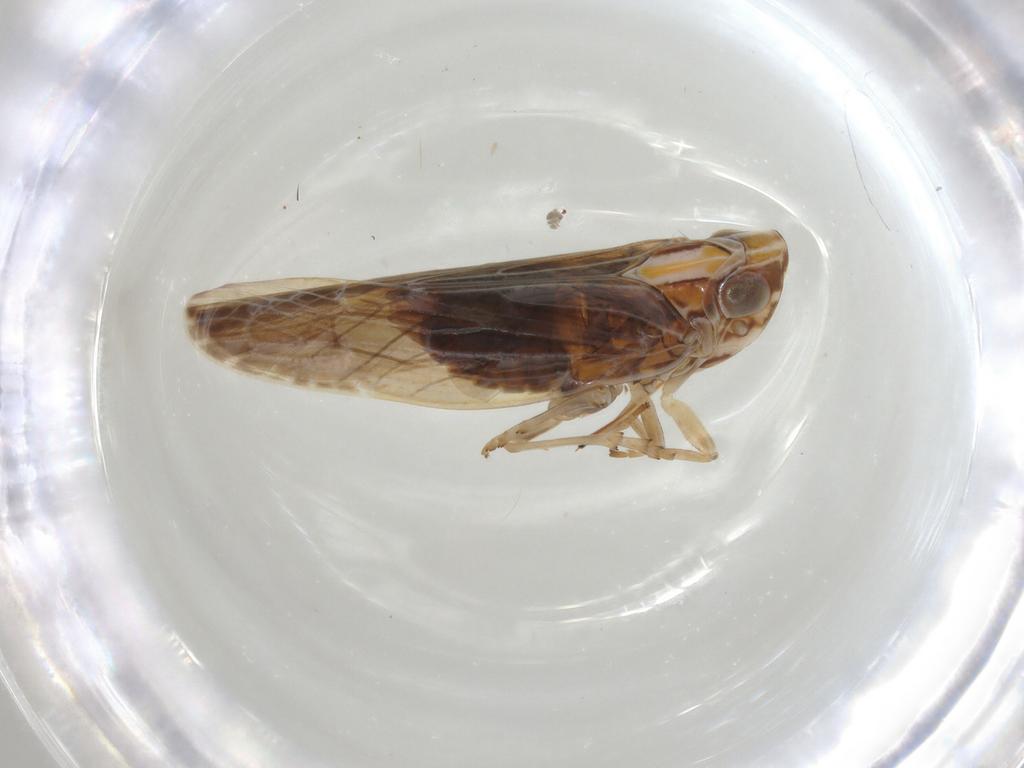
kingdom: Animalia
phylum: Arthropoda
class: Insecta
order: Hemiptera
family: Achilidae
